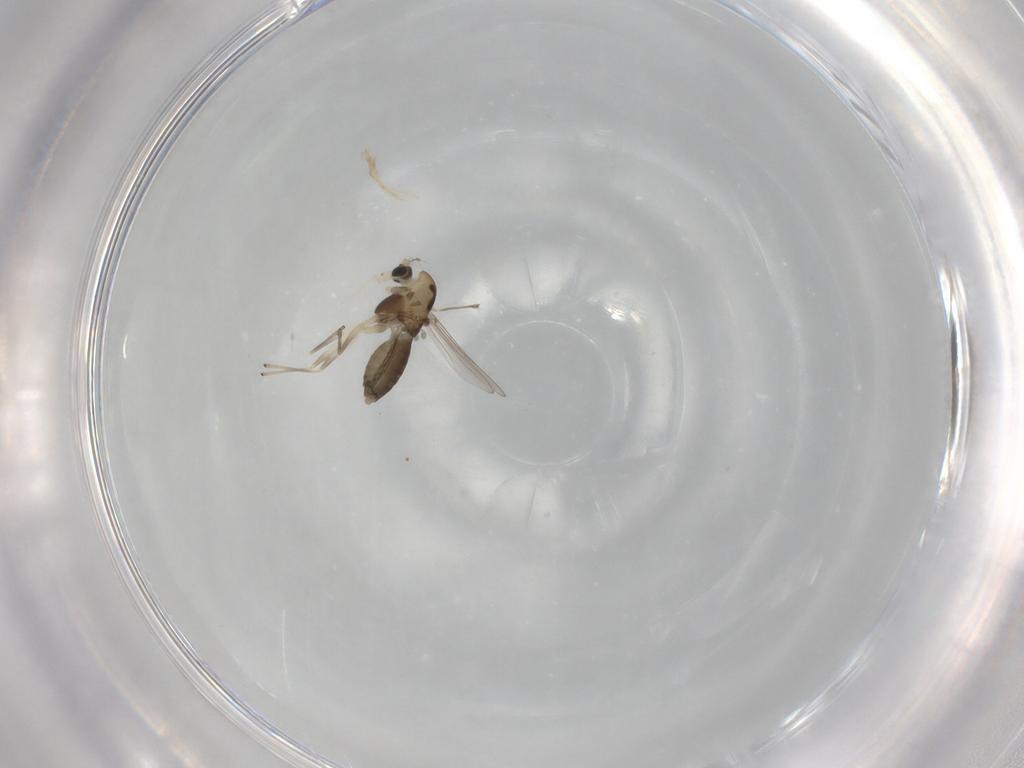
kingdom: Animalia
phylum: Arthropoda
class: Insecta
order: Diptera
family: Chironomidae
